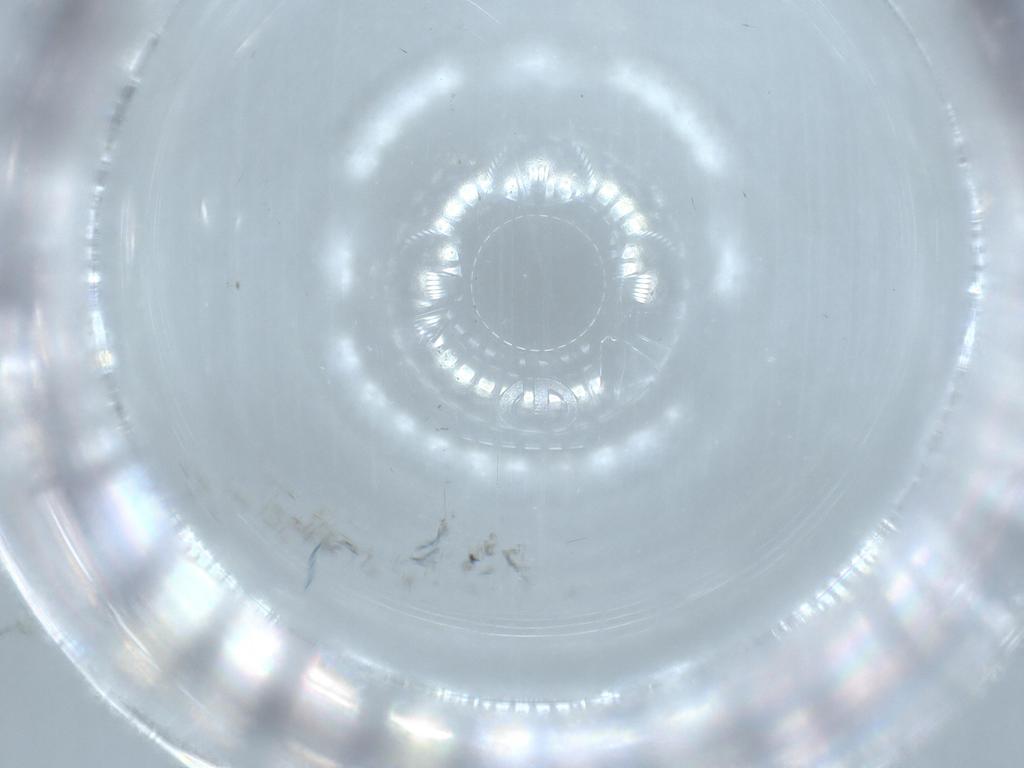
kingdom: Animalia
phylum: Arthropoda
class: Insecta
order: Diptera
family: Cecidomyiidae
